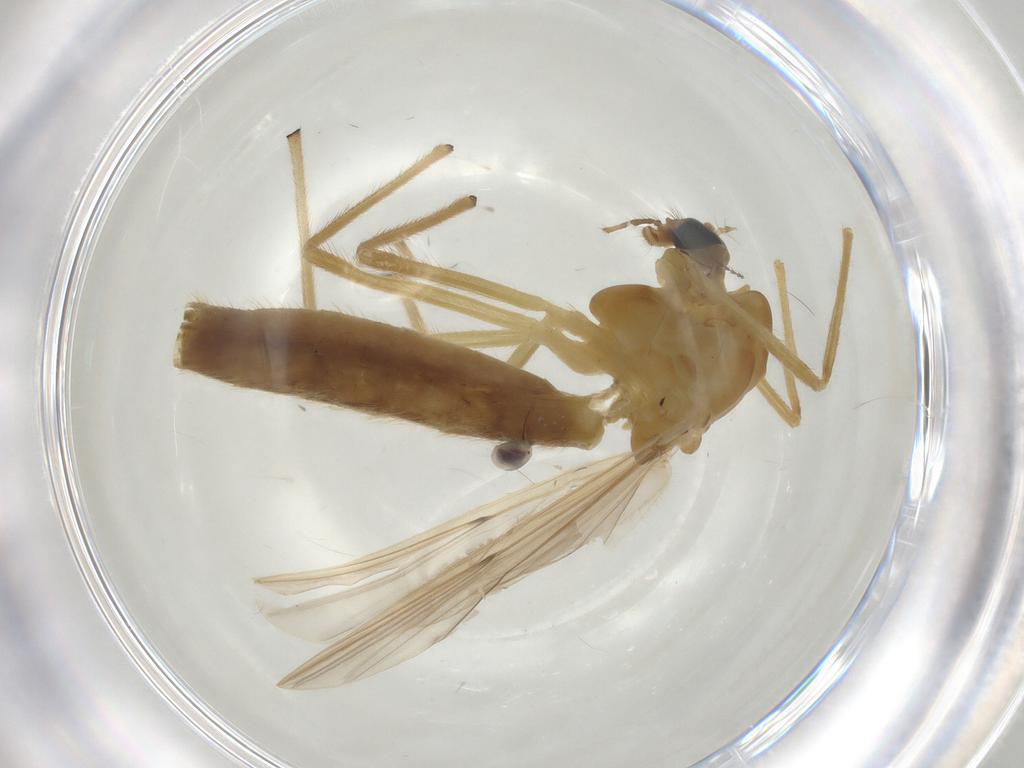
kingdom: Animalia
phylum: Arthropoda
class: Insecta
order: Diptera
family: Chironomidae
